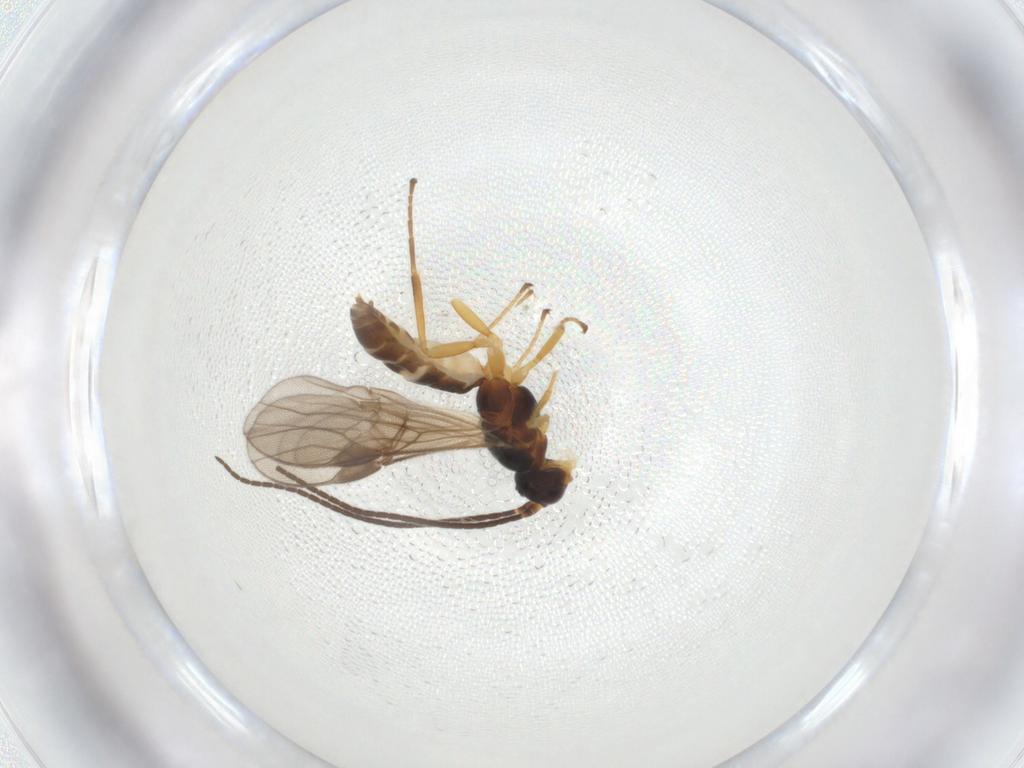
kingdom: Animalia
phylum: Arthropoda
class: Insecta
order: Hymenoptera
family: Braconidae
